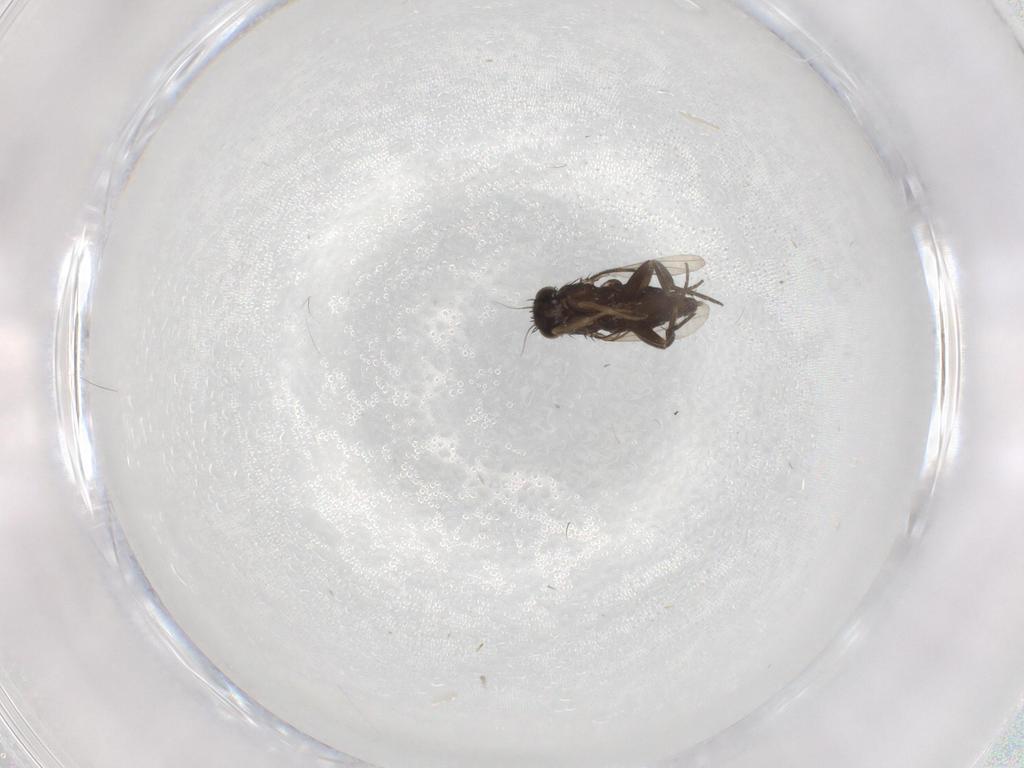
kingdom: Animalia
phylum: Arthropoda
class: Insecta
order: Diptera
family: Phoridae
